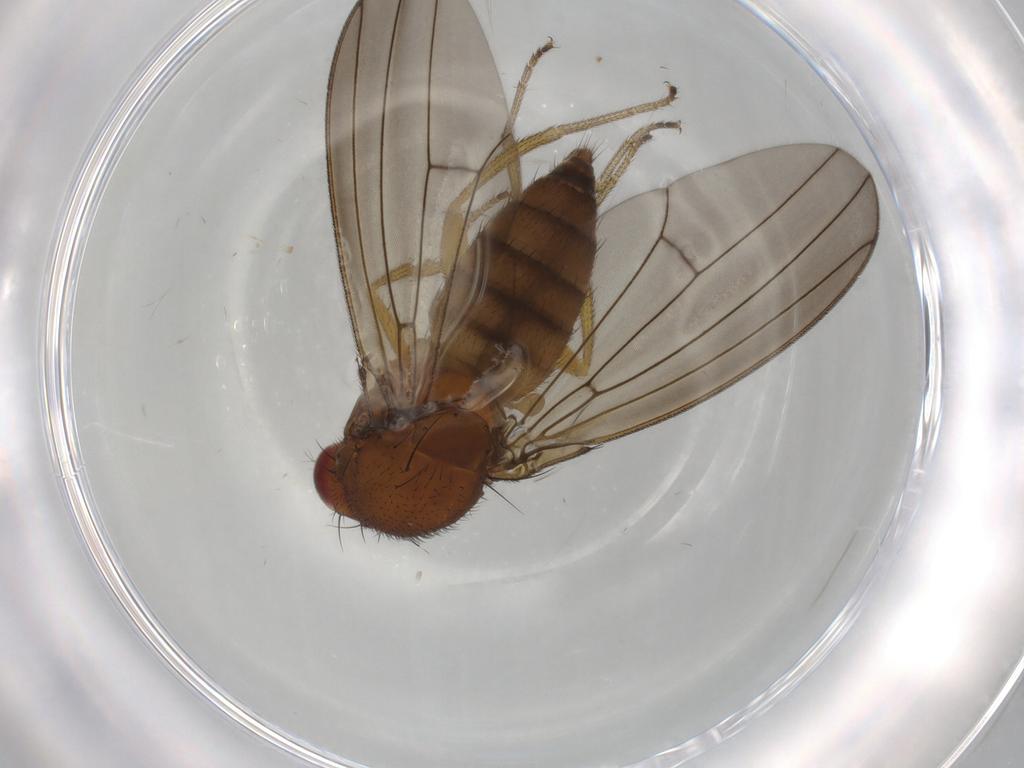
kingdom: Animalia
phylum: Arthropoda
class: Insecta
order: Diptera
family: Drosophilidae
